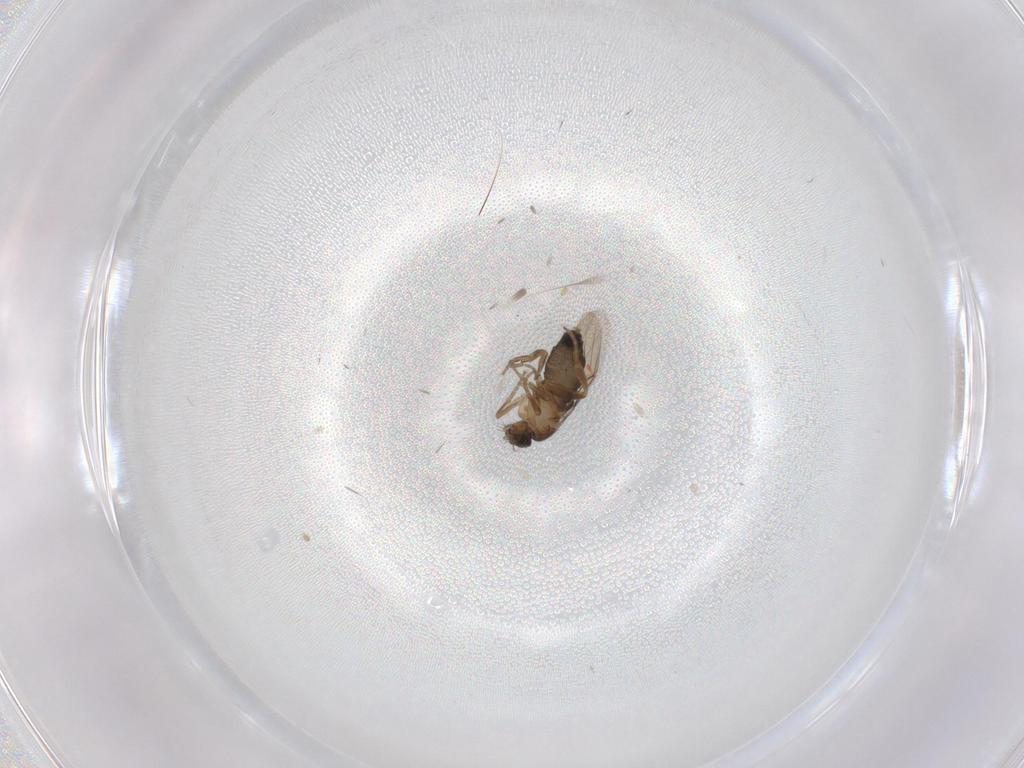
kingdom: Animalia
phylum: Arthropoda
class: Insecta
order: Diptera
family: Phoridae
